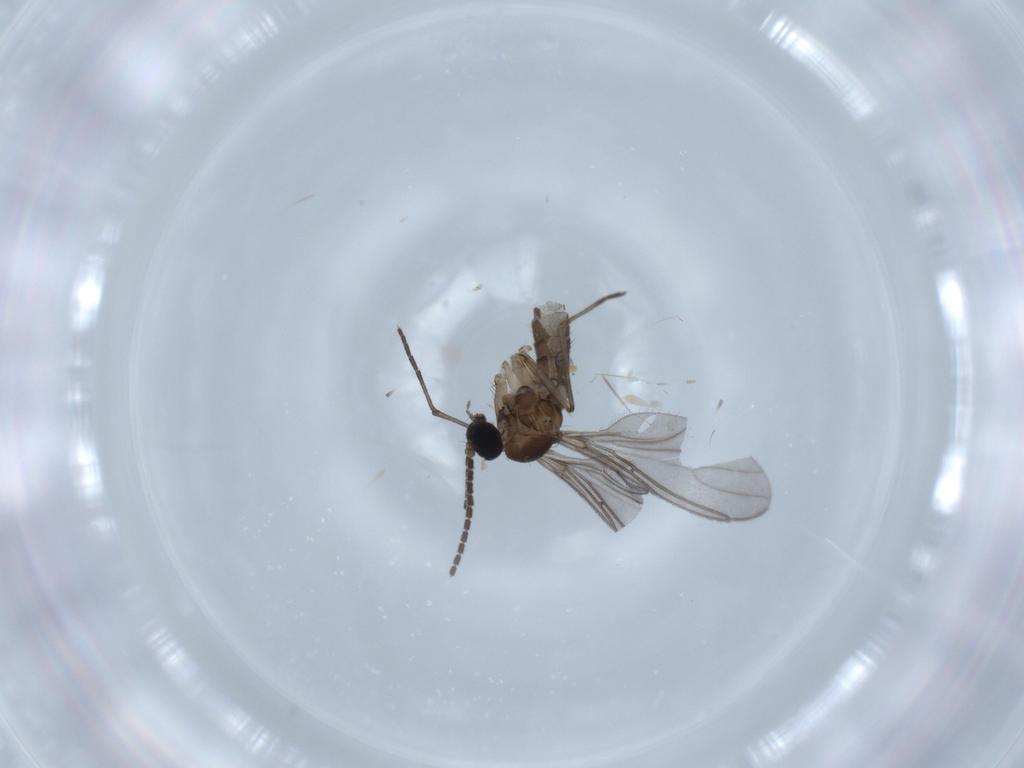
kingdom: Animalia
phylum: Arthropoda
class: Insecta
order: Diptera
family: Sciaridae
